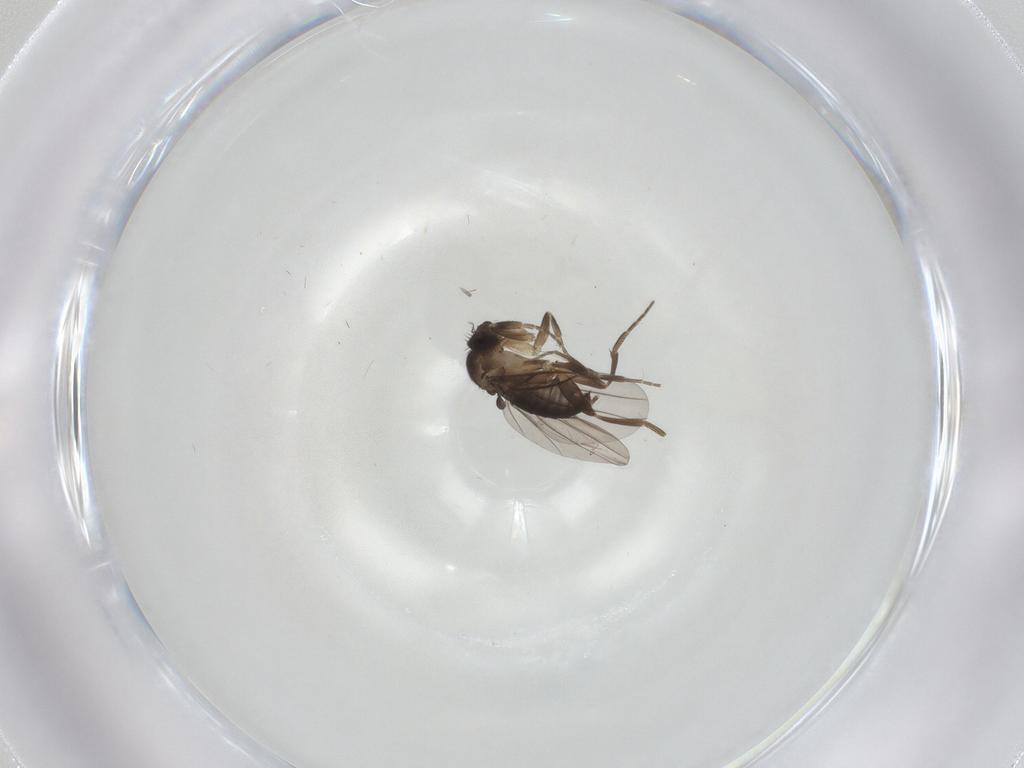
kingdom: Animalia
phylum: Arthropoda
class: Insecta
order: Diptera
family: Phoridae
